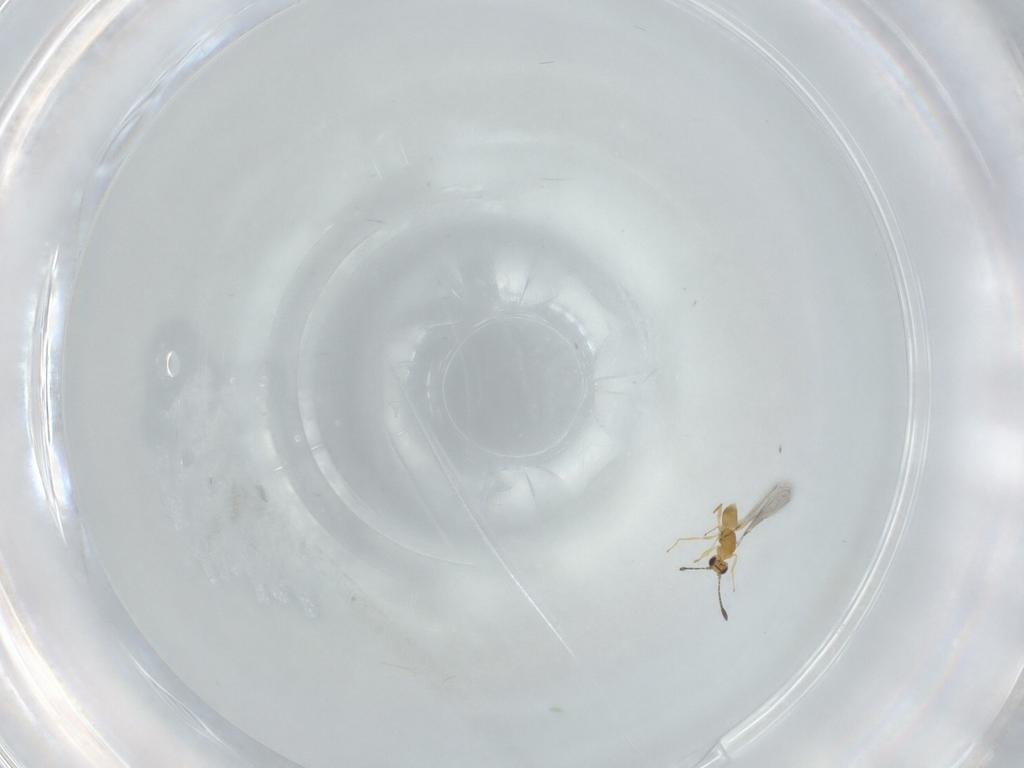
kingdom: Animalia
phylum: Arthropoda
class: Insecta
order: Hymenoptera
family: Mymaridae
